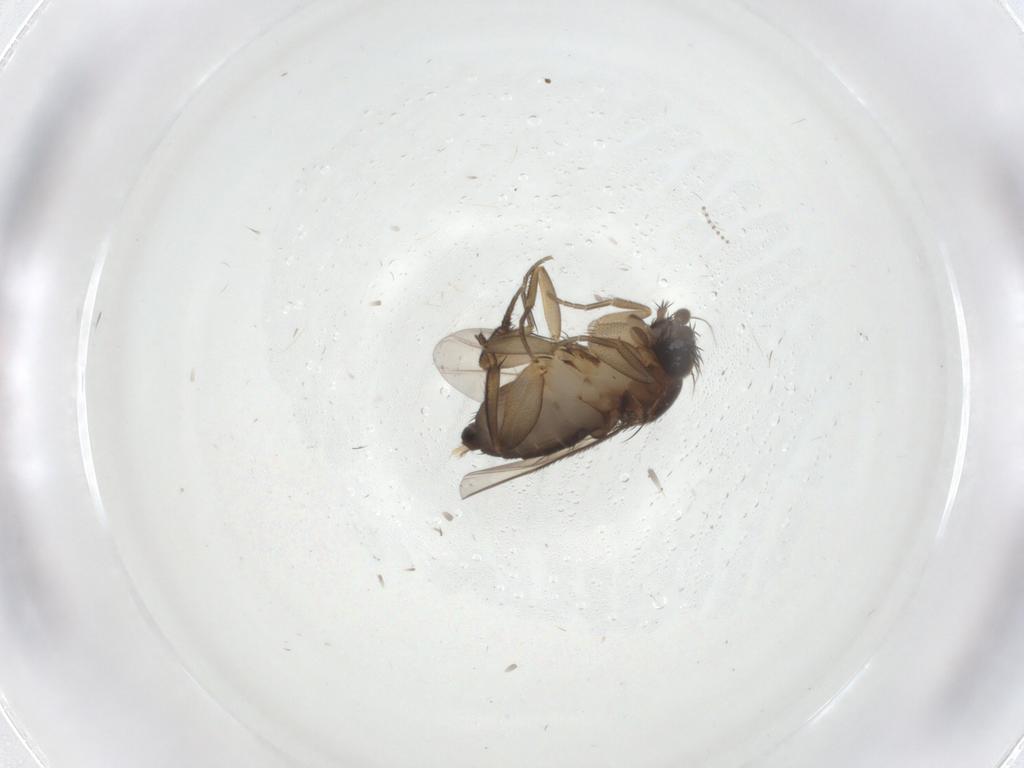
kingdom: Animalia
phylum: Arthropoda
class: Insecta
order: Diptera
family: Phoridae
